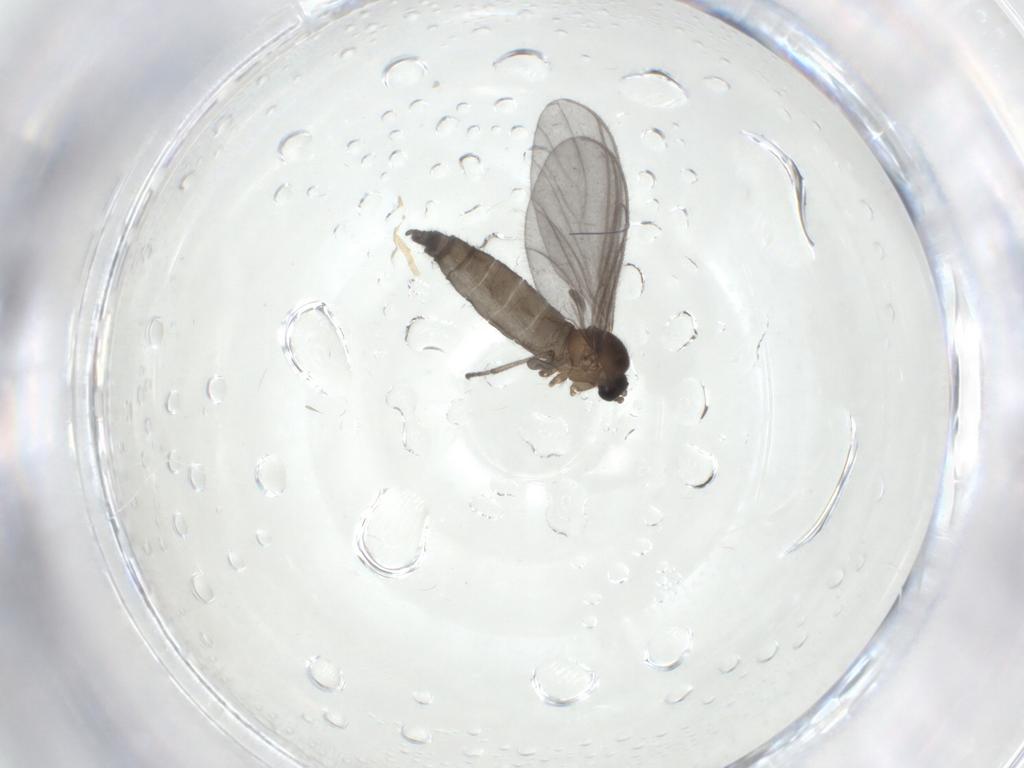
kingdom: Animalia
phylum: Arthropoda
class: Insecta
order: Diptera
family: Sciaridae
